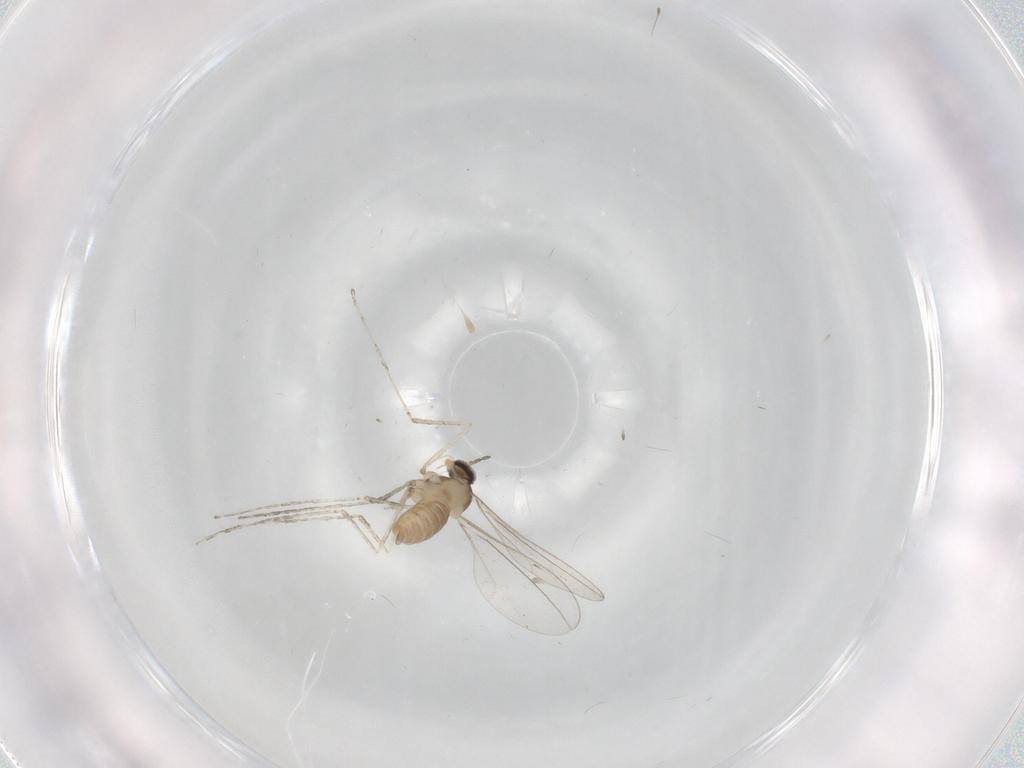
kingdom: Animalia
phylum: Arthropoda
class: Insecta
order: Diptera
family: Cecidomyiidae
